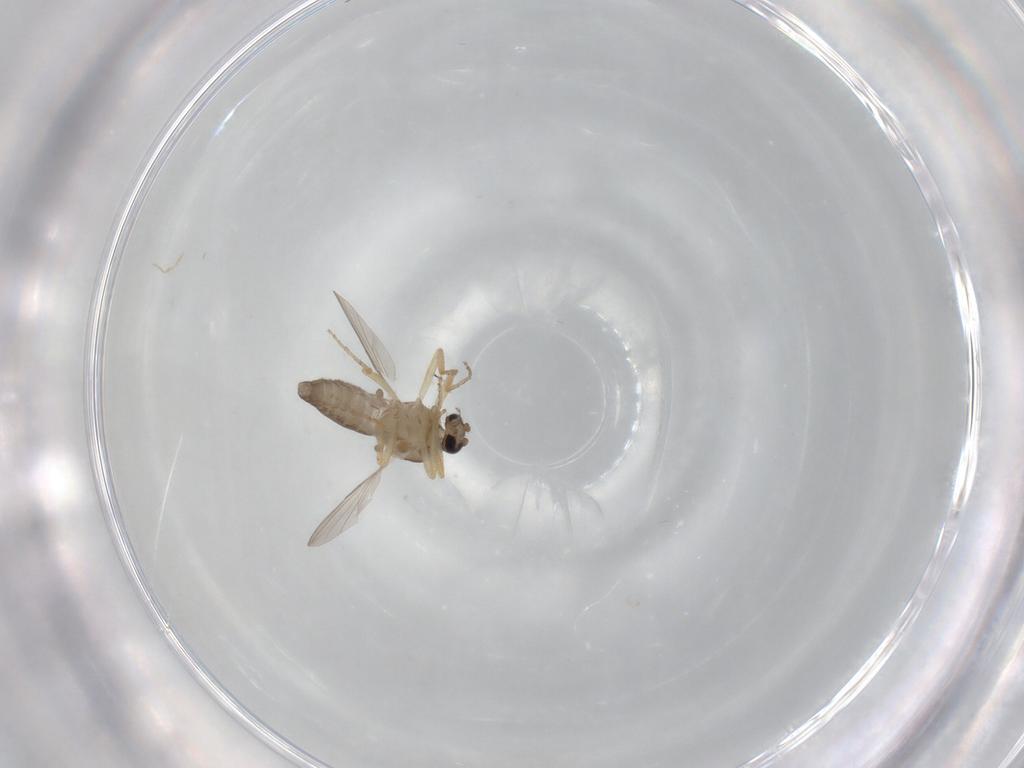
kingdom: Animalia
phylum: Arthropoda
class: Insecta
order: Diptera
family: Ceratopogonidae
